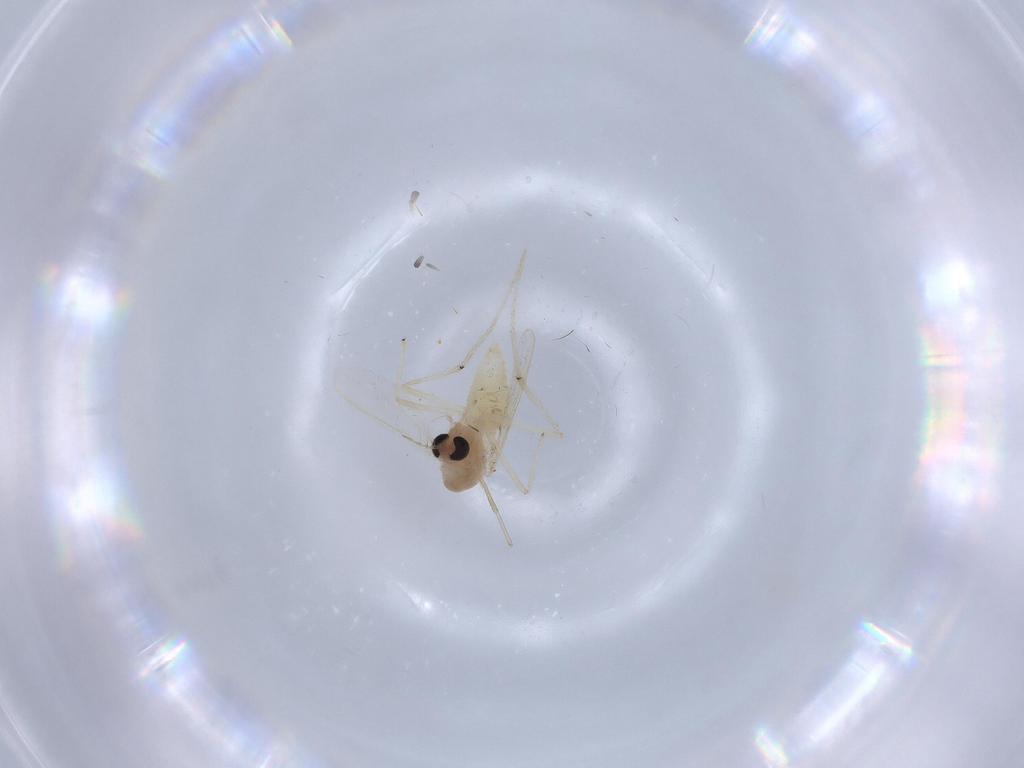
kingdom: Animalia
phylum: Arthropoda
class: Insecta
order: Diptera
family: Chironomidae
